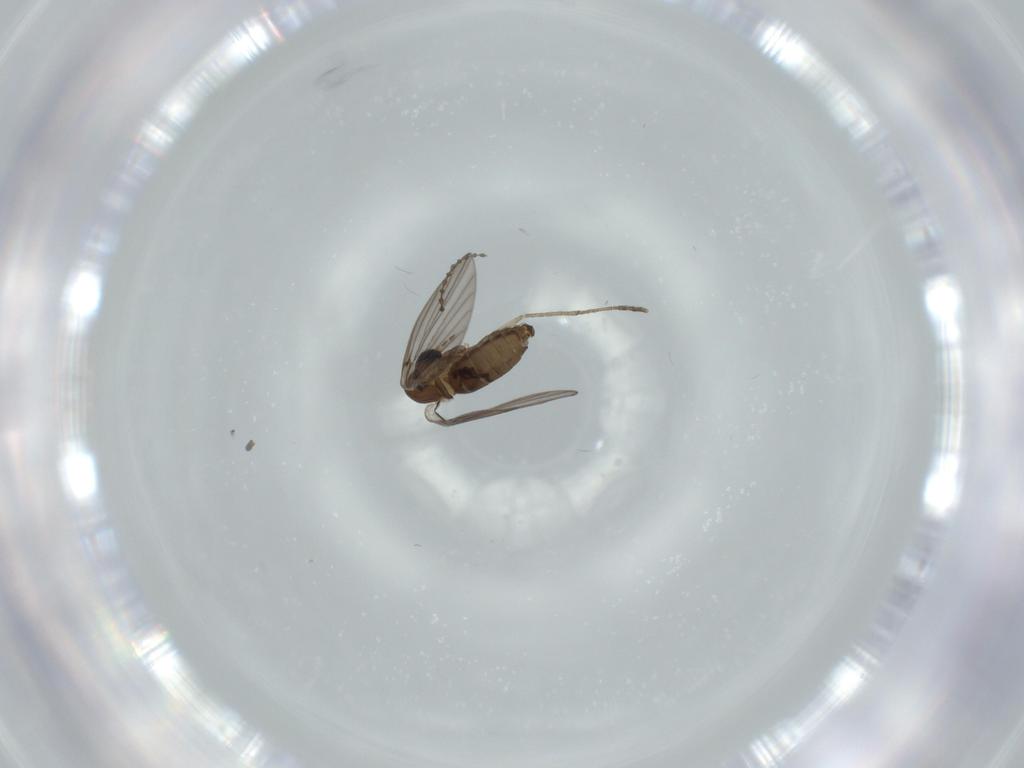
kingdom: Animalia
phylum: Arthropoda
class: Insecta
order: Diptera
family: Psychodidae
